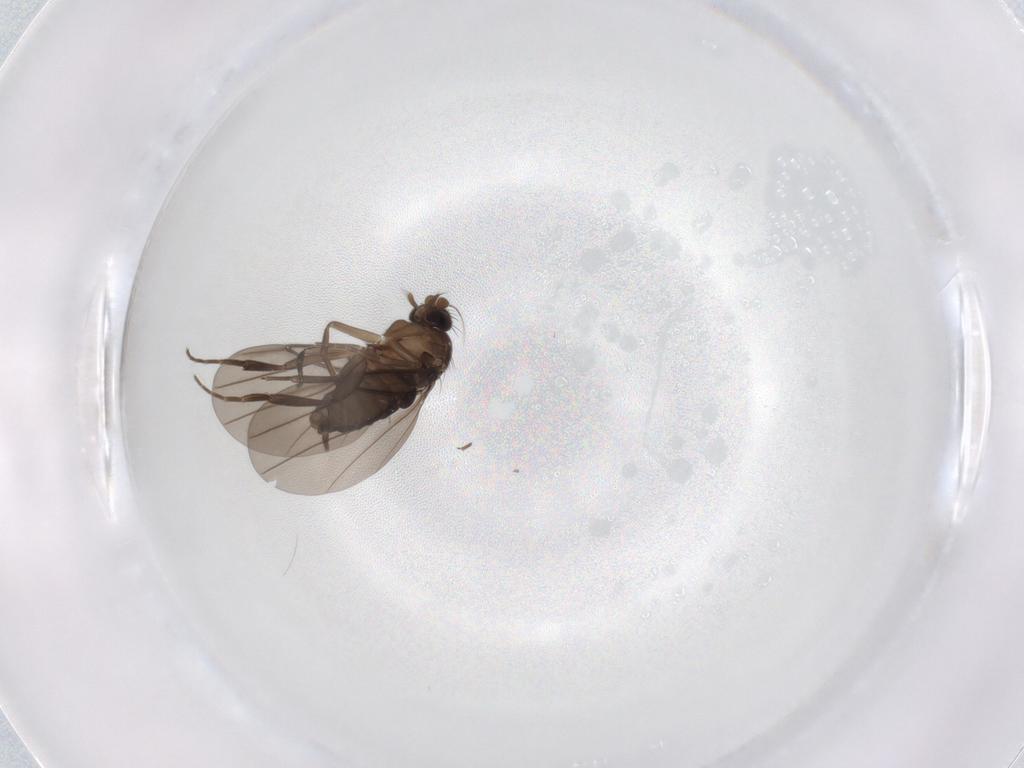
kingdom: Animalia
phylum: Arthropoda
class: Insecta
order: Diptera
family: Phoridae
